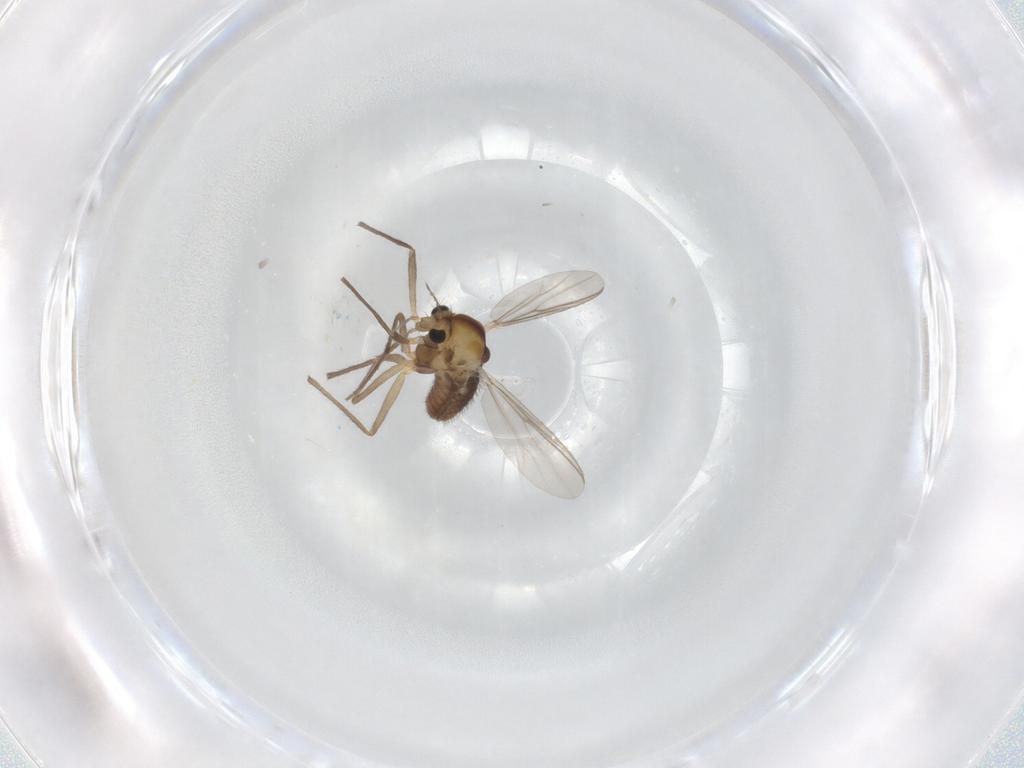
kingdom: Animalia
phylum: Arthropoda
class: Insecta
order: Diptera
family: Chironomidae
